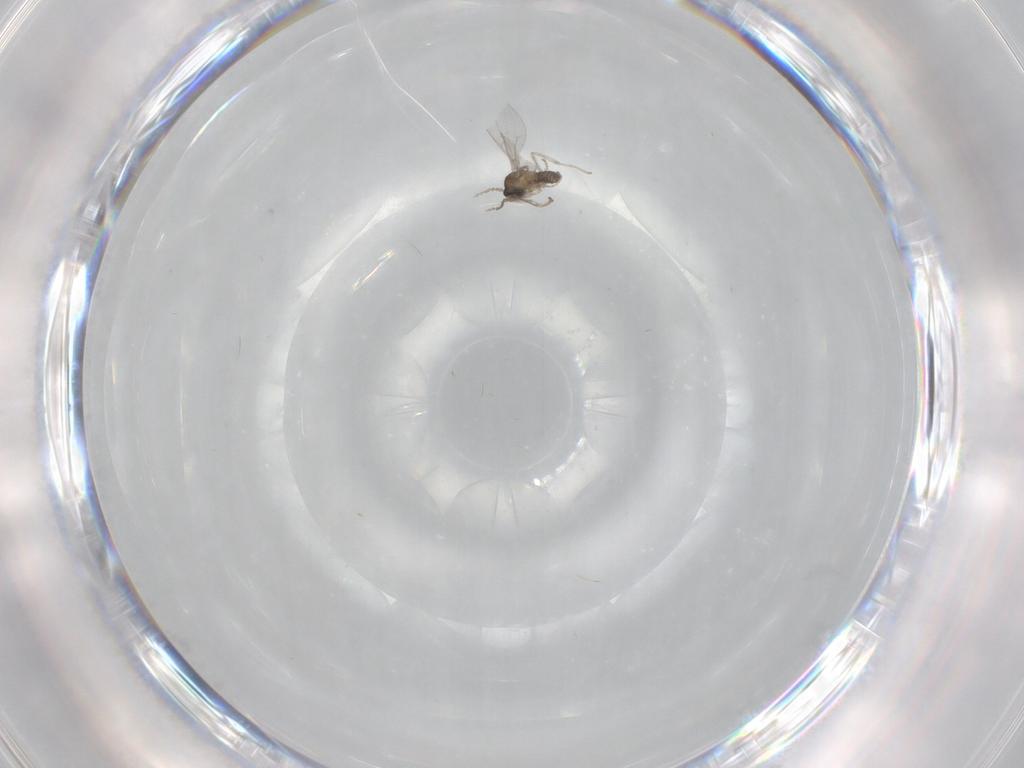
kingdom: Animalia
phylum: Arthropoda
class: Insecta
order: Diptera
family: Cecidomyiidae
